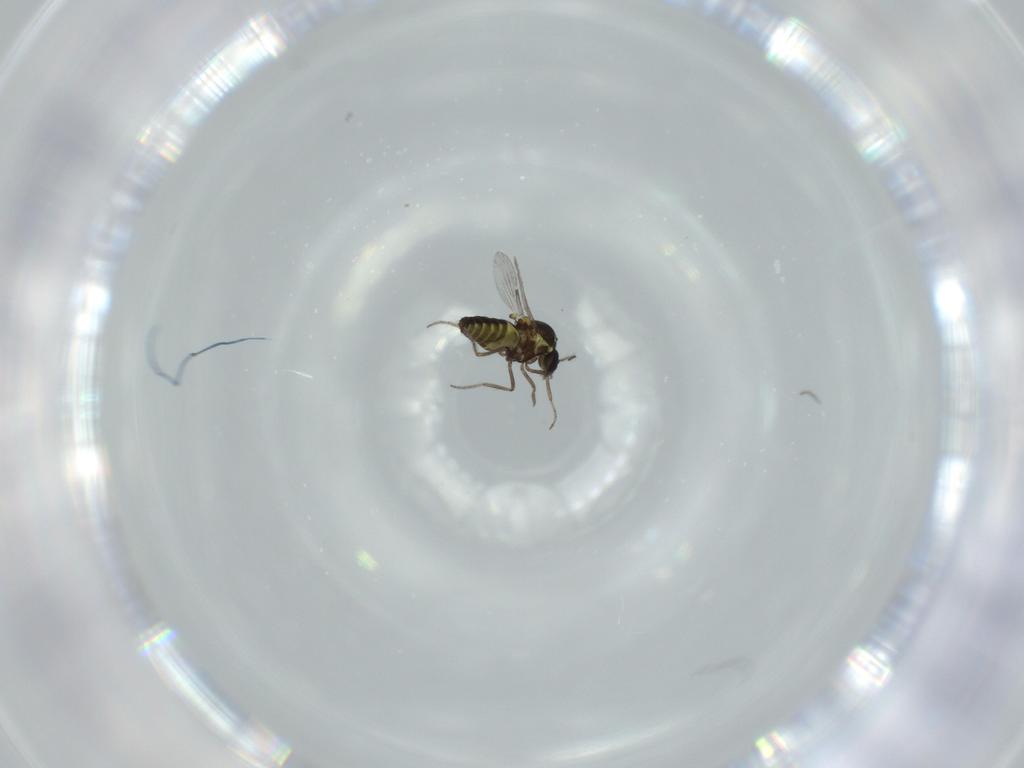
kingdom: Animalia
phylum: Arthropoda
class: Insecta
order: Diptera
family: Ceratopogonidae
